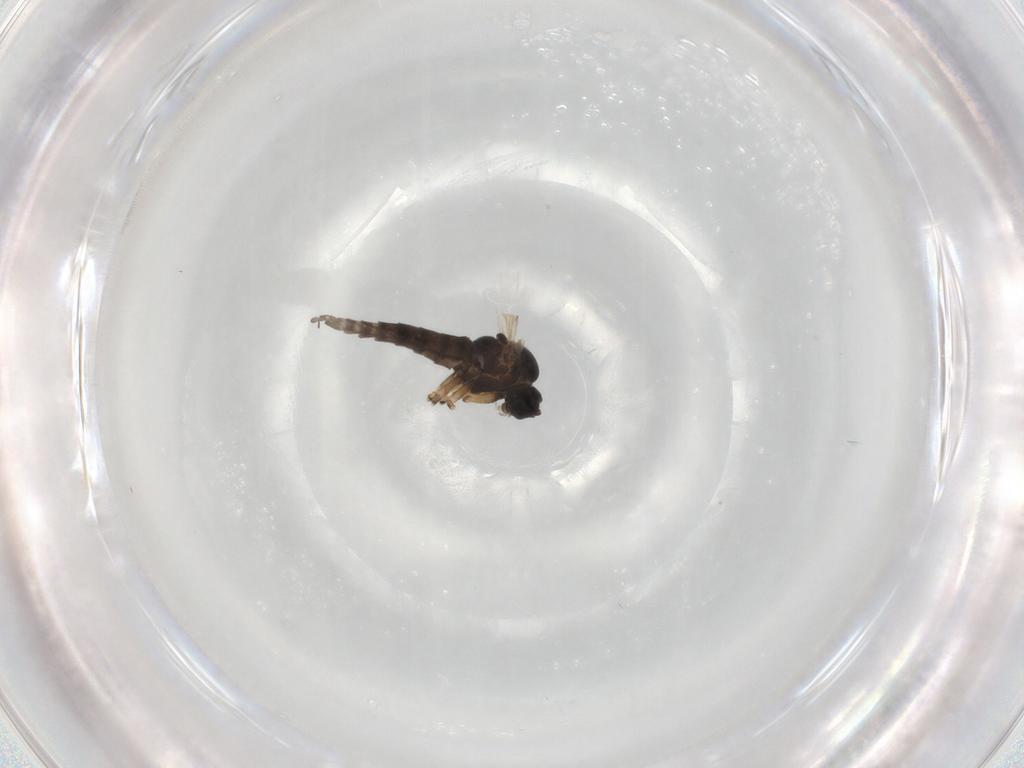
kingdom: Animalia
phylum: Arthropoda
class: Insecta
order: Diptera
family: Sciaridae
